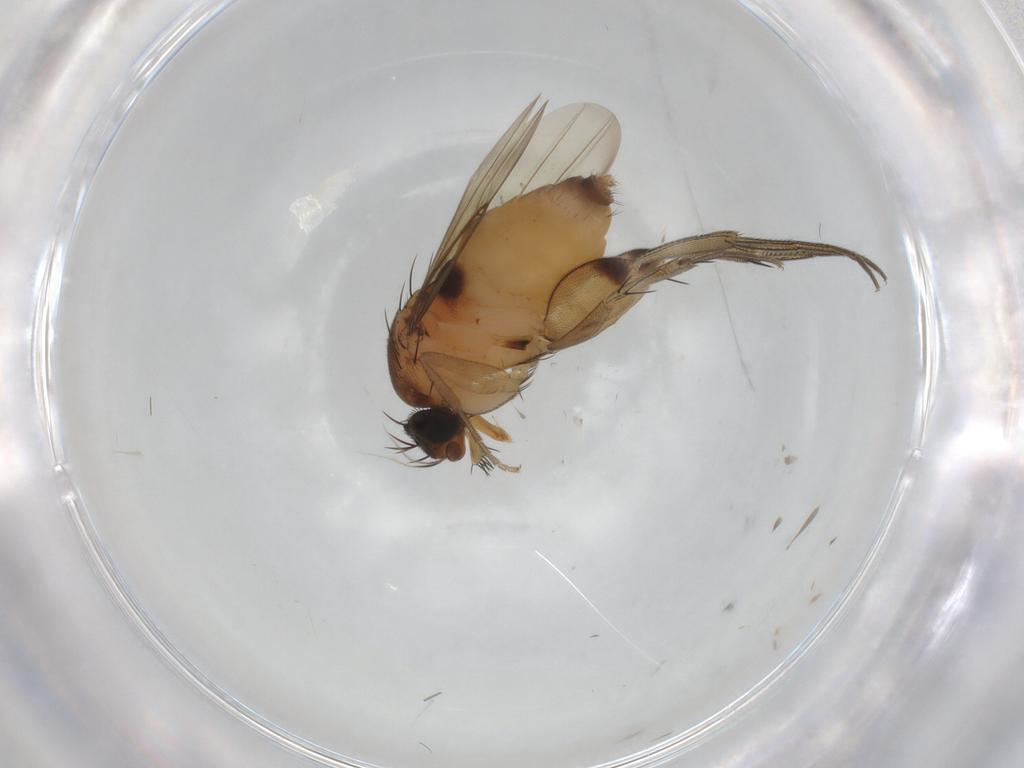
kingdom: Animalia
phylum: Arthropoda
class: Insecta
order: Diptera
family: Phoridae
